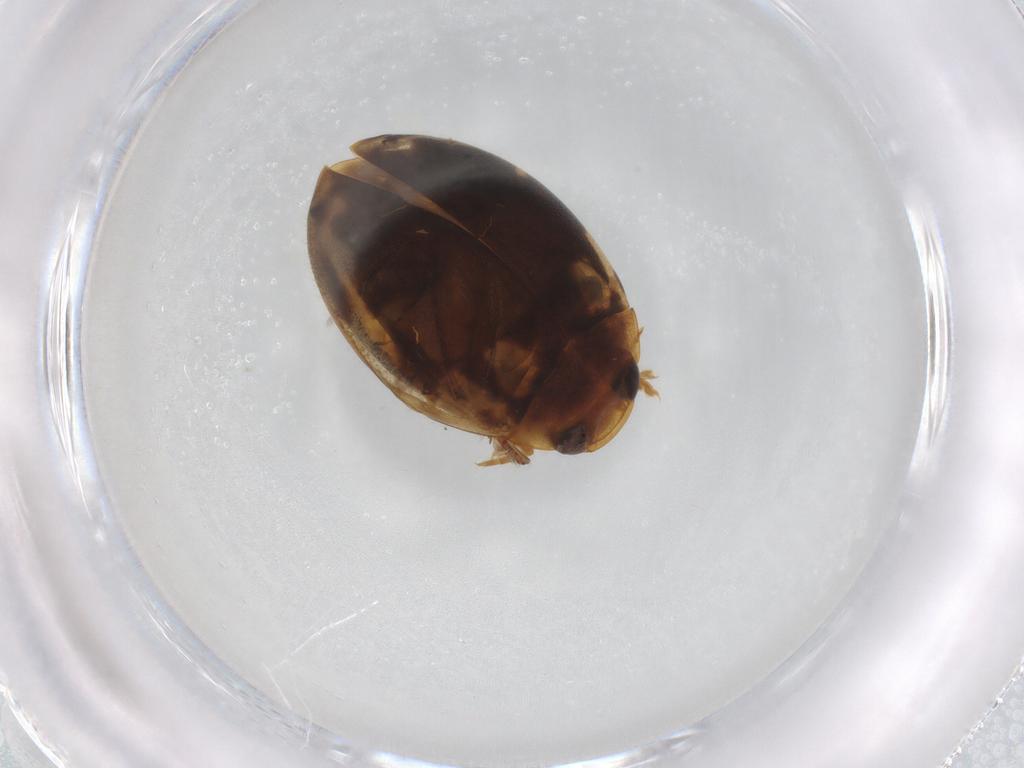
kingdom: Animalia
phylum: Arthropoda
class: Insecta
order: Coleoptera
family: Dytiscidae
